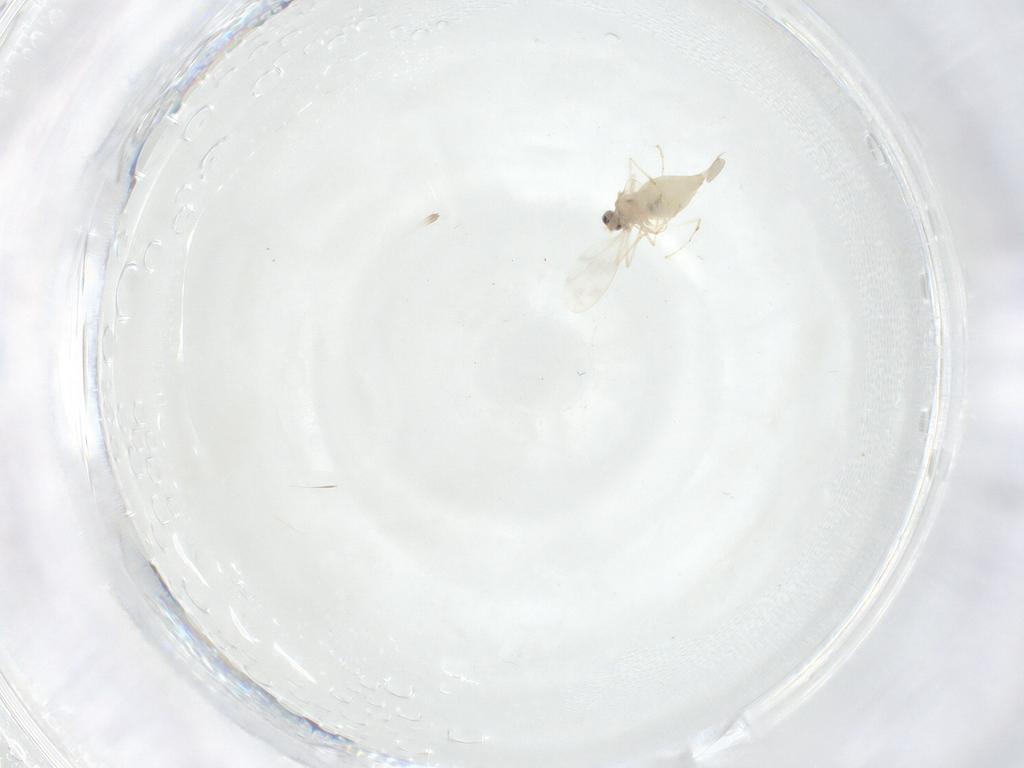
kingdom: Animalia
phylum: Arthropoda
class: Insecta
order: Diptera
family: Cecidomyiidae
